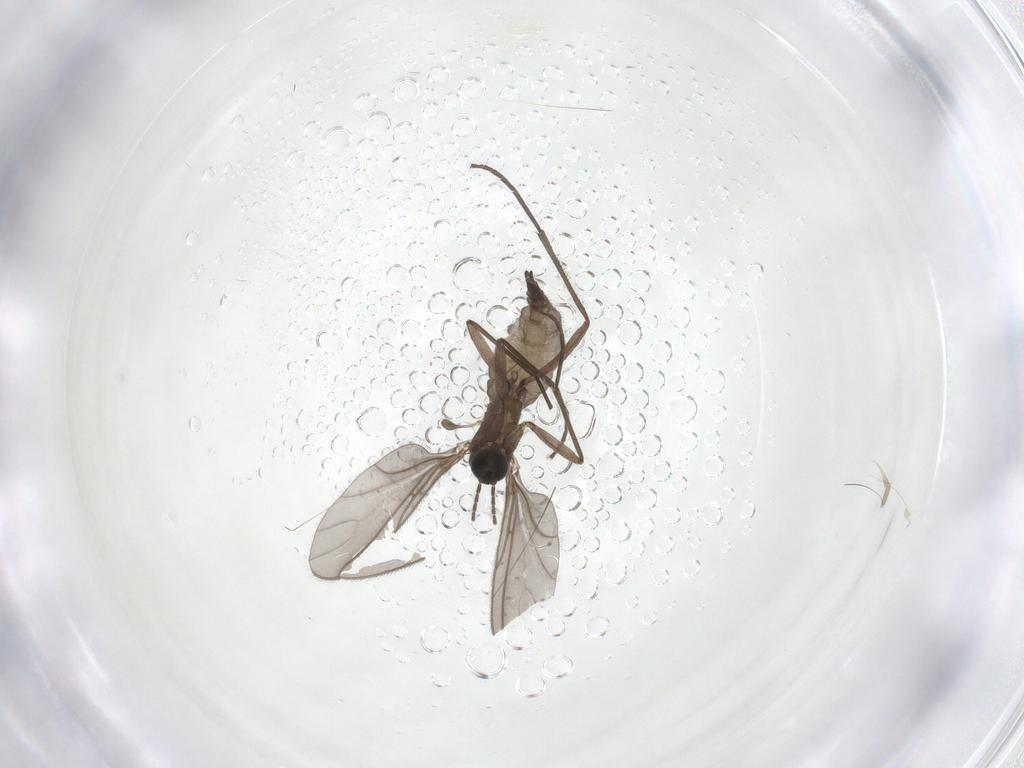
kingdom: Animalia
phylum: Arthropoda
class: Insecta
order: Diptera
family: Sciaridae
